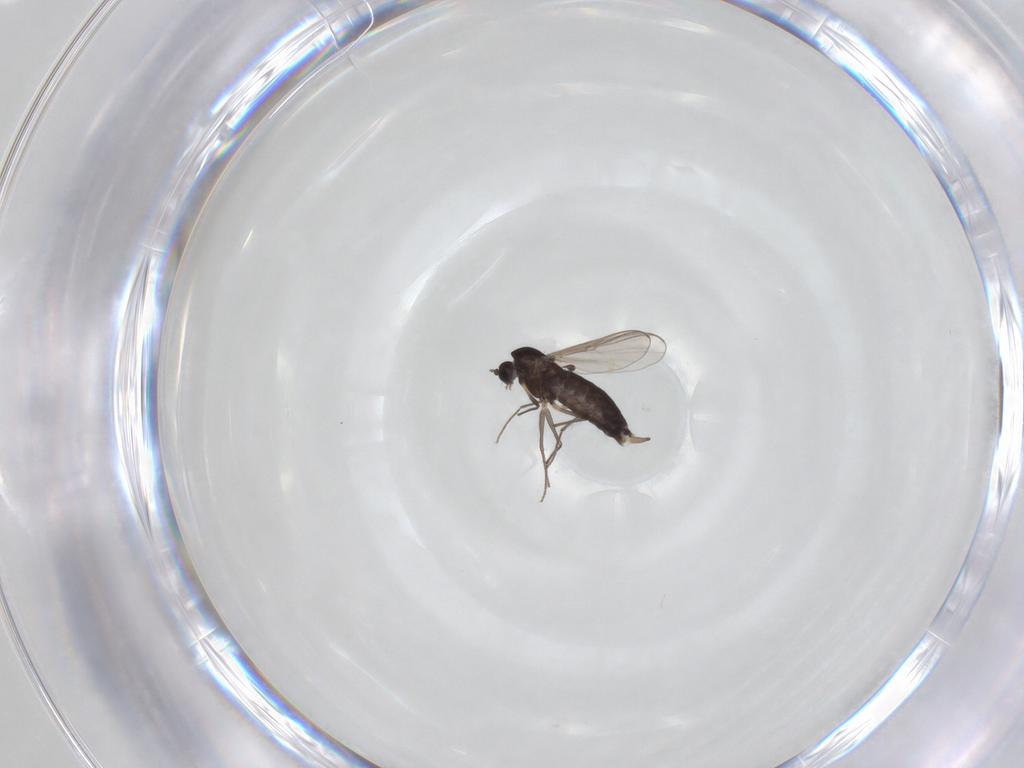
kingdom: Animalia
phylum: Arthropoda
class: Insecta
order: Diptera
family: Chironomidae
